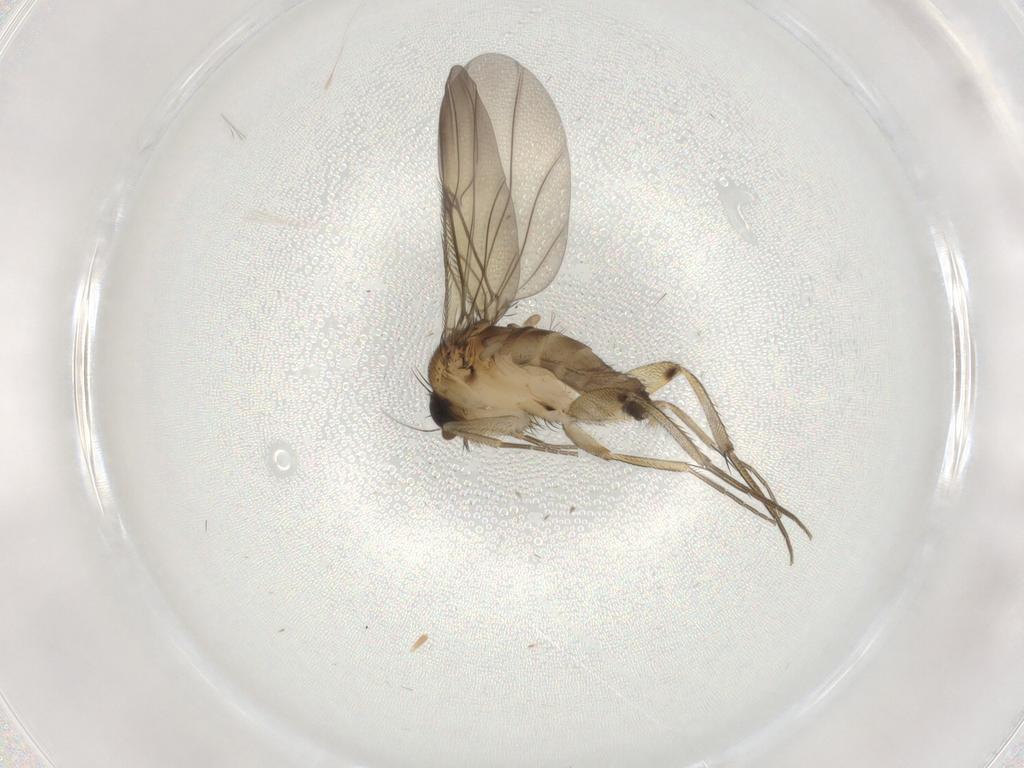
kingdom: Animalia
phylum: Arthropoda
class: Insecta
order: Diptera
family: Phoridae
